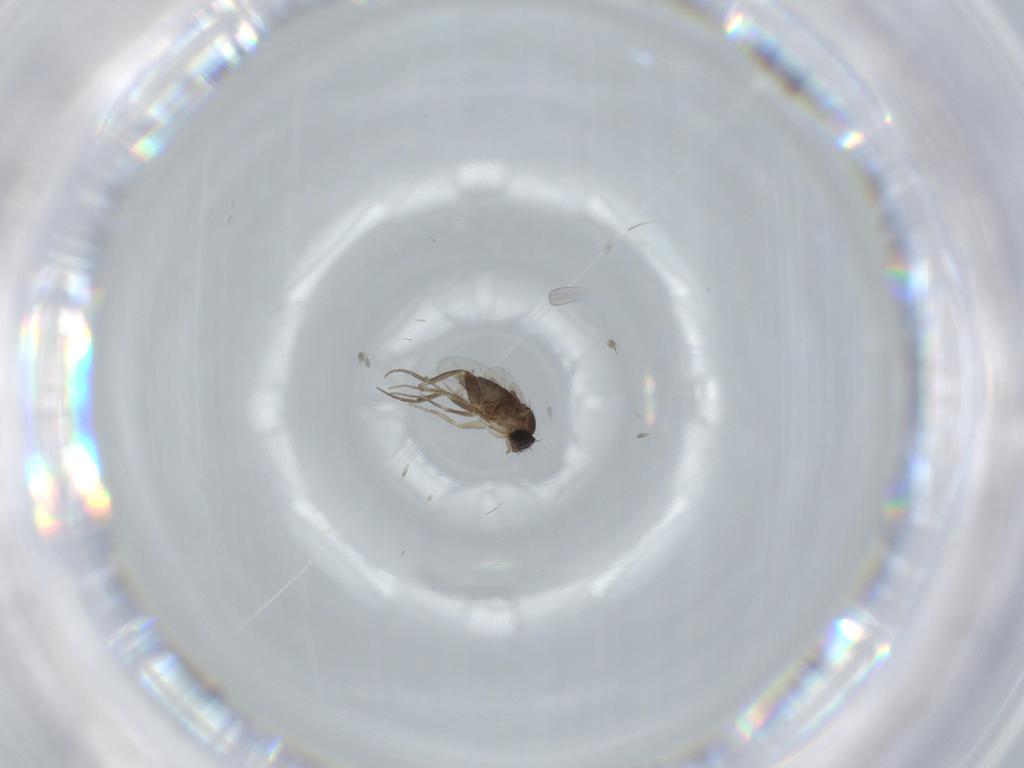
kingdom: Animalia
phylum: Arthropoda
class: Insecta
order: Diptera
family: Phoridae
